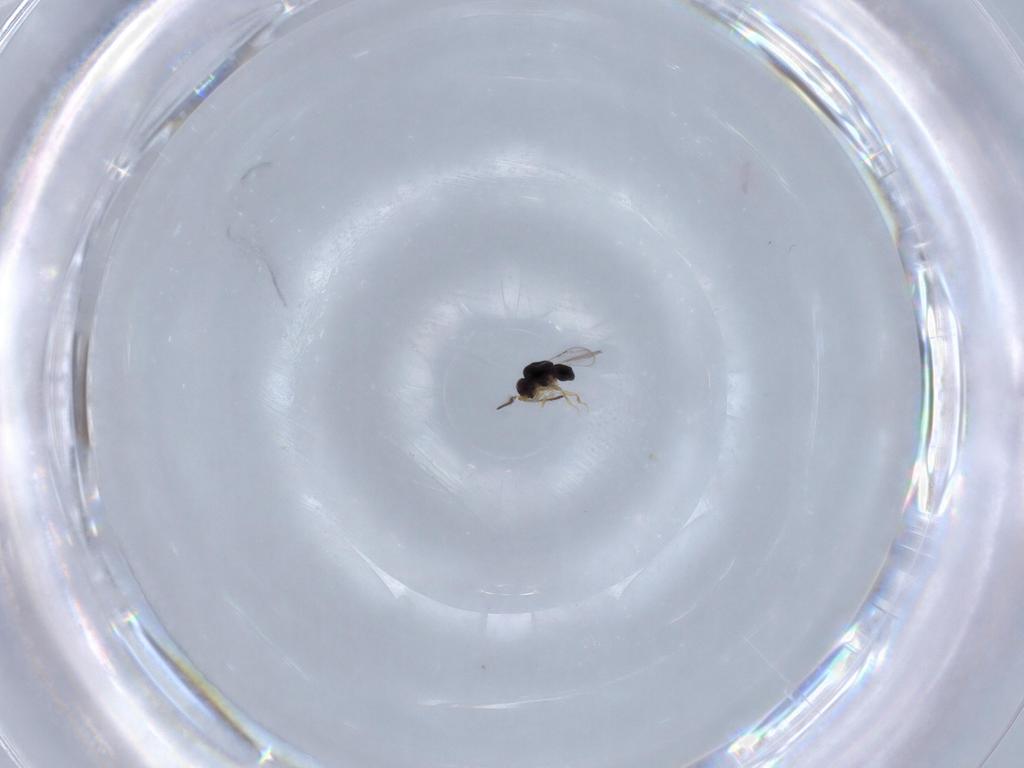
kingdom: Animalia
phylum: Arthropoda
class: Insecta
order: Hymenoptera
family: Ceraphronidae
